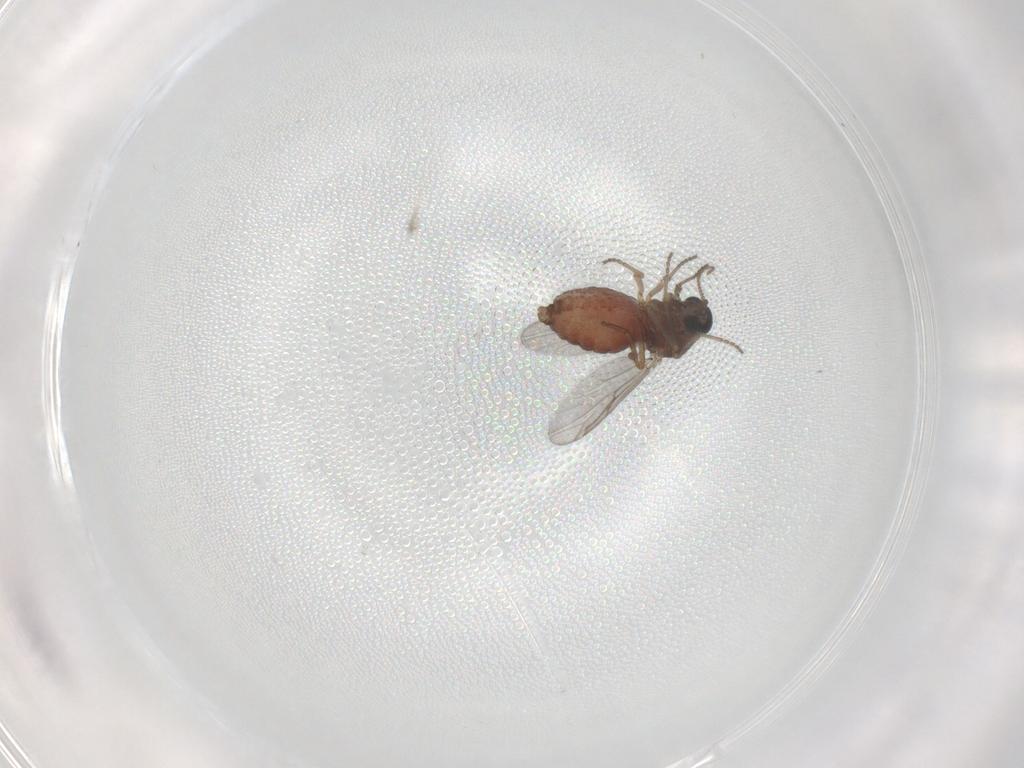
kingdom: Animalia
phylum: Arthropoda
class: Insecta
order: Diptera
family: Ceratopogonidae
